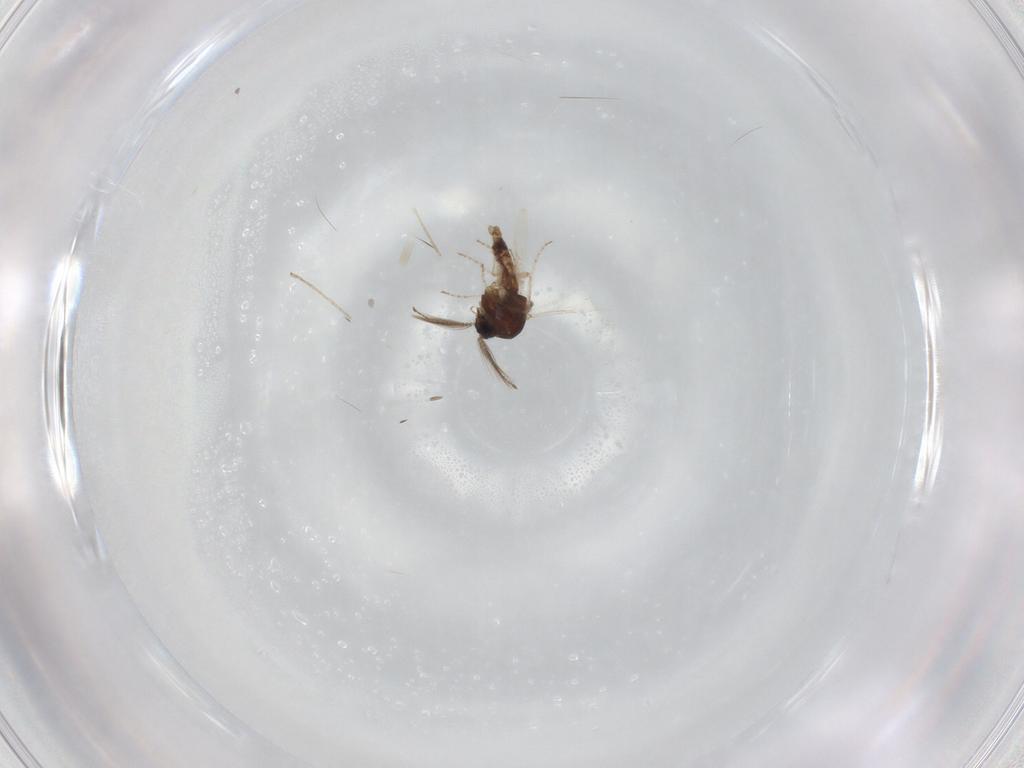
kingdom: Animalia
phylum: Arthropoda
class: Insecta
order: Diptera
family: Ceratopogonidae
